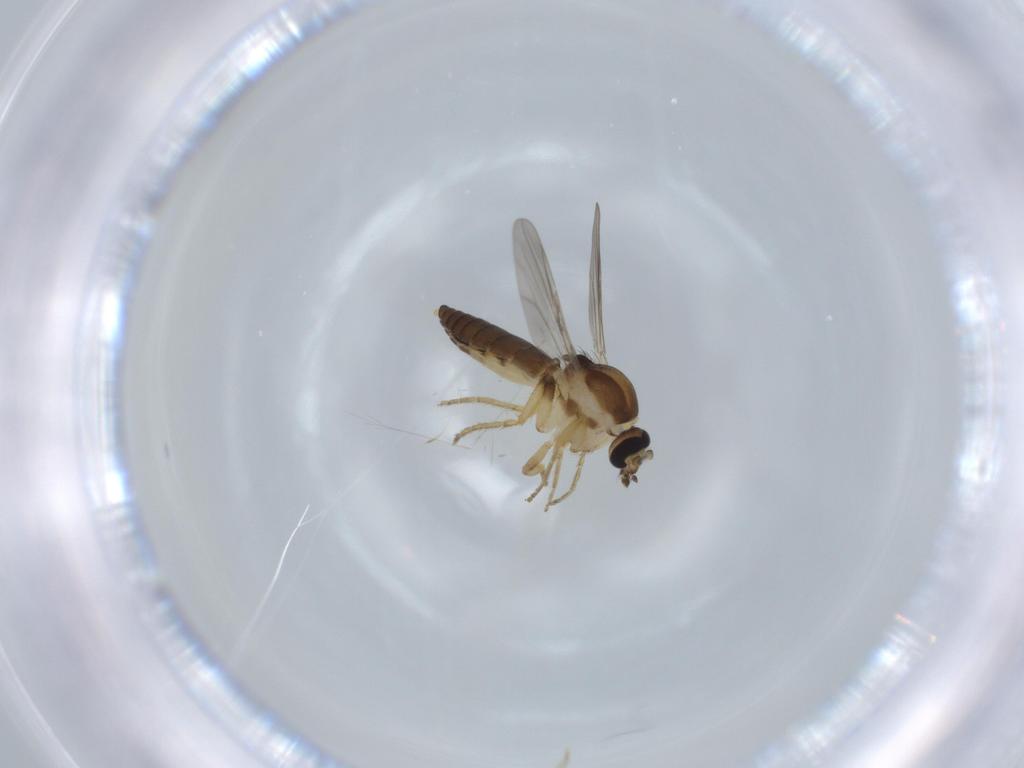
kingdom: Animalia
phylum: Arthropoda
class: Insecta
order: Diptera
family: Ceratopogonidae
